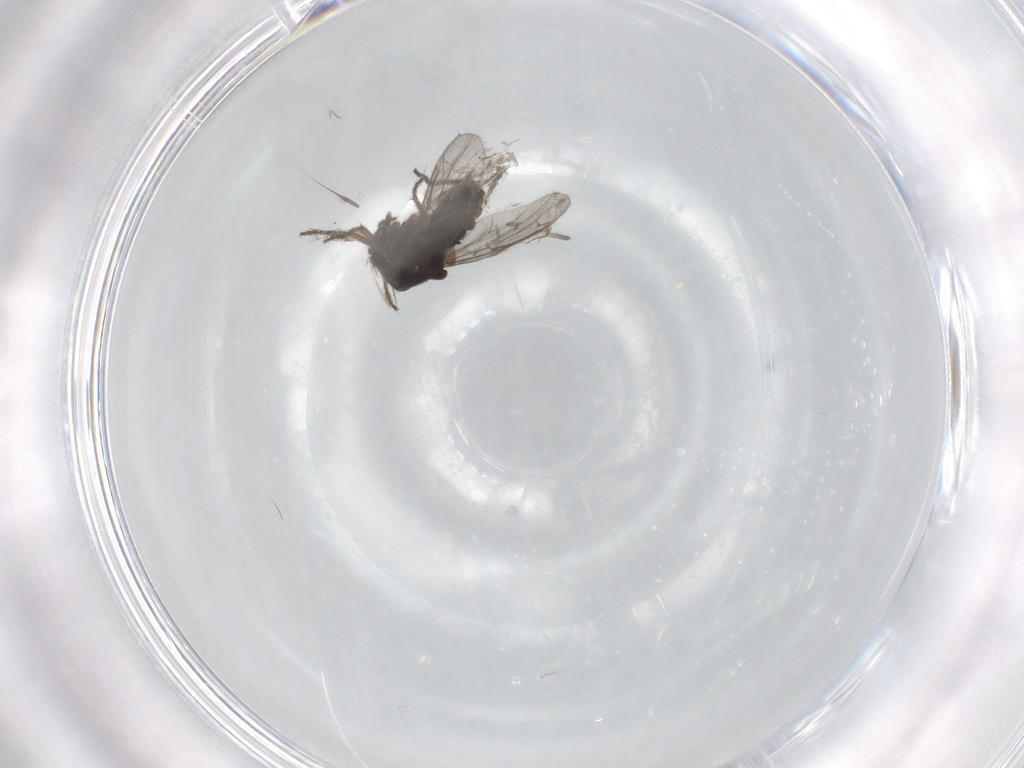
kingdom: Animalia
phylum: Arthropoda
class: Insecta
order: Diptera
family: Ceratopogonidae
